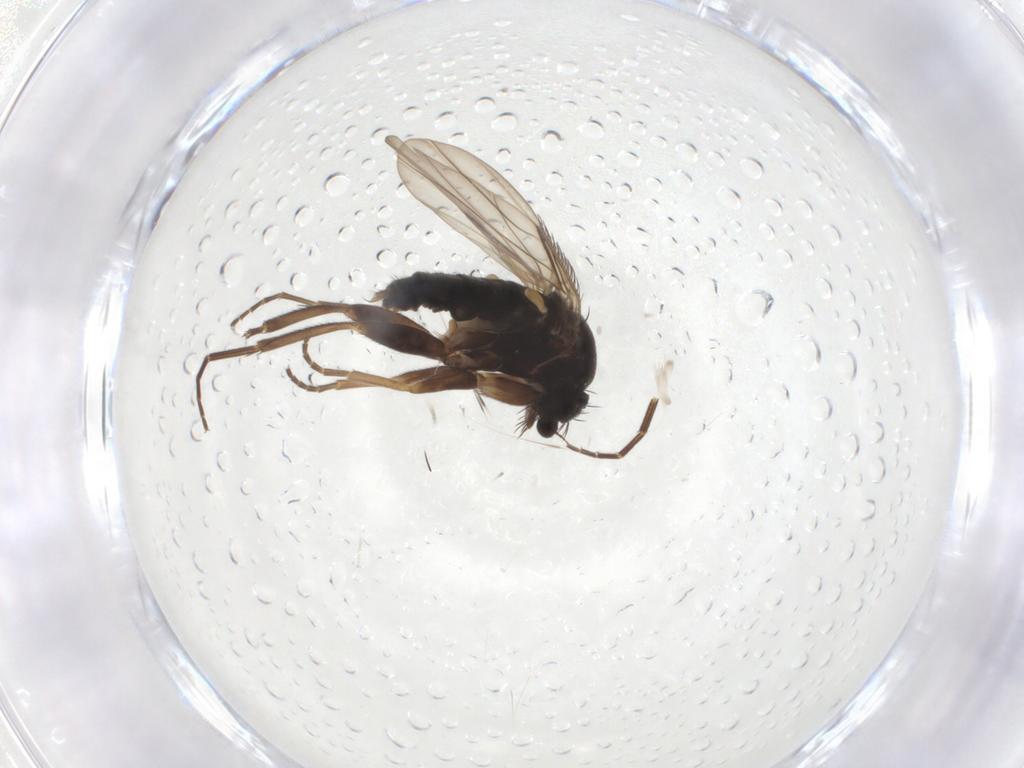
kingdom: Animalia
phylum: Arthropoda
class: Insecta
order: Diptera
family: Phoridae
